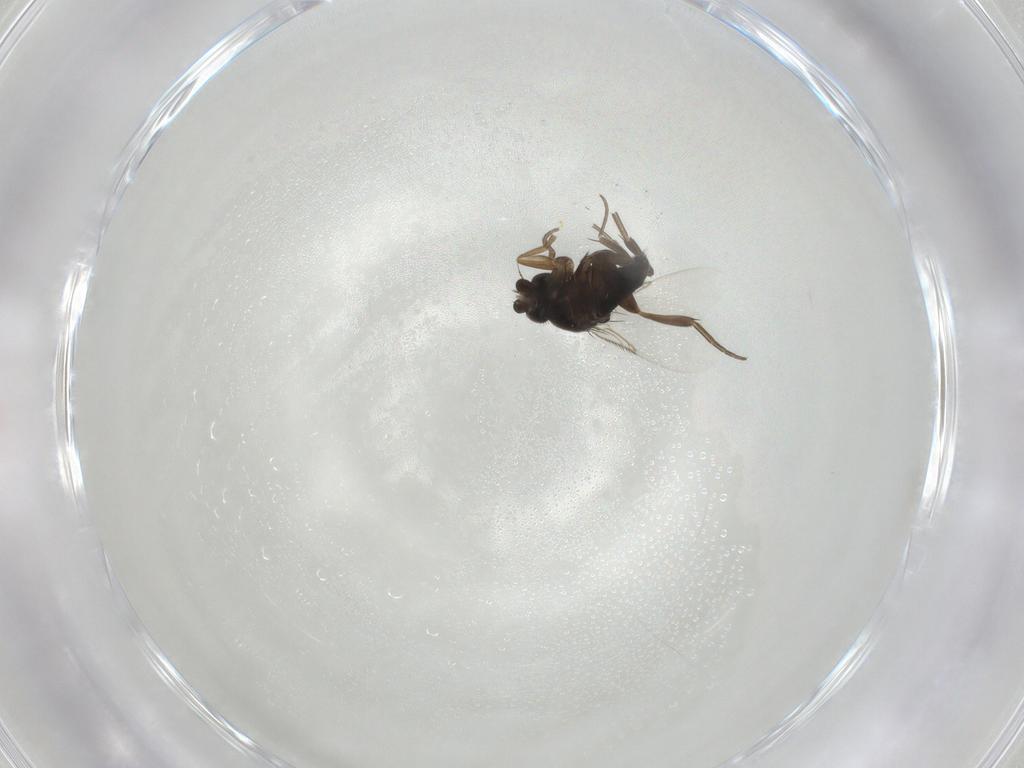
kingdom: Animalia
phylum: Arthropoda
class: Insecta
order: Diptera
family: Phoridae
